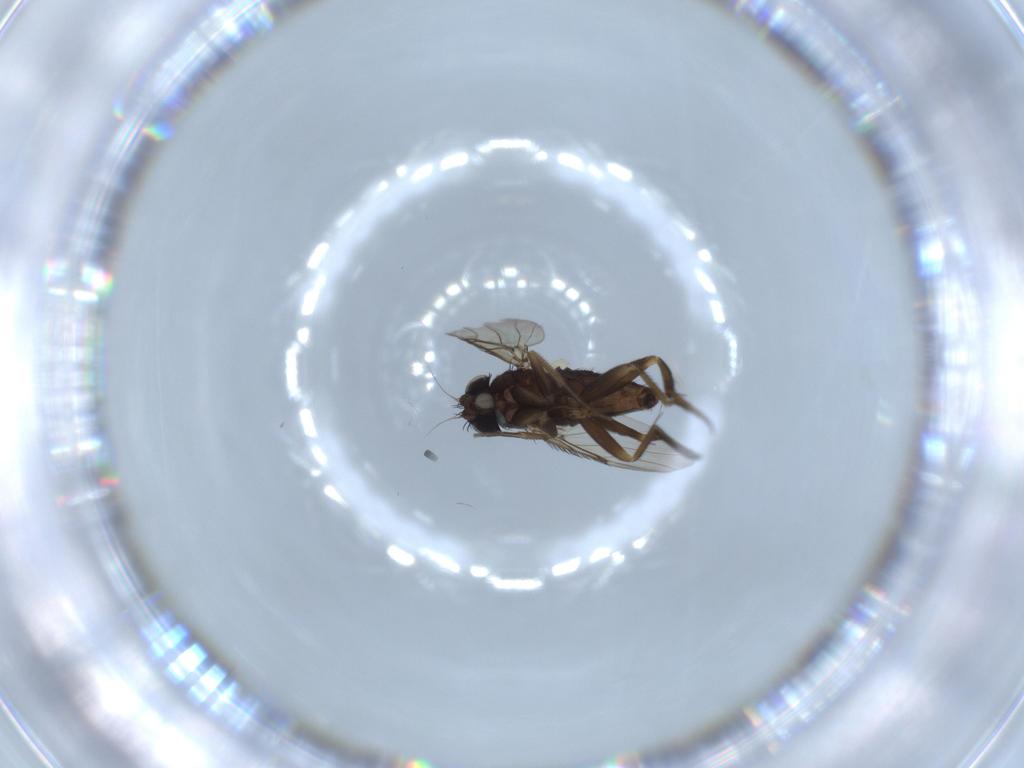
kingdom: Animalia
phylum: Arthropoda
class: Insecta
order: Diptera
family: Phoridae
